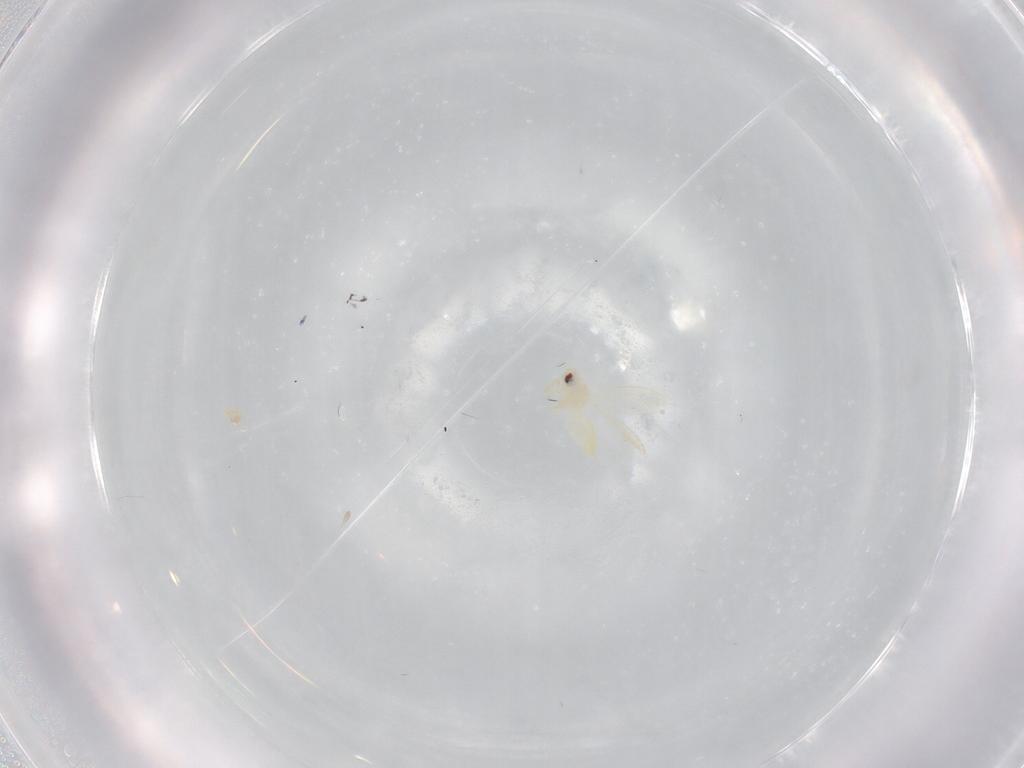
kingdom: Animalia
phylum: Arthropoda
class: Insecta
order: Hemiptera
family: Aleyrodidae
